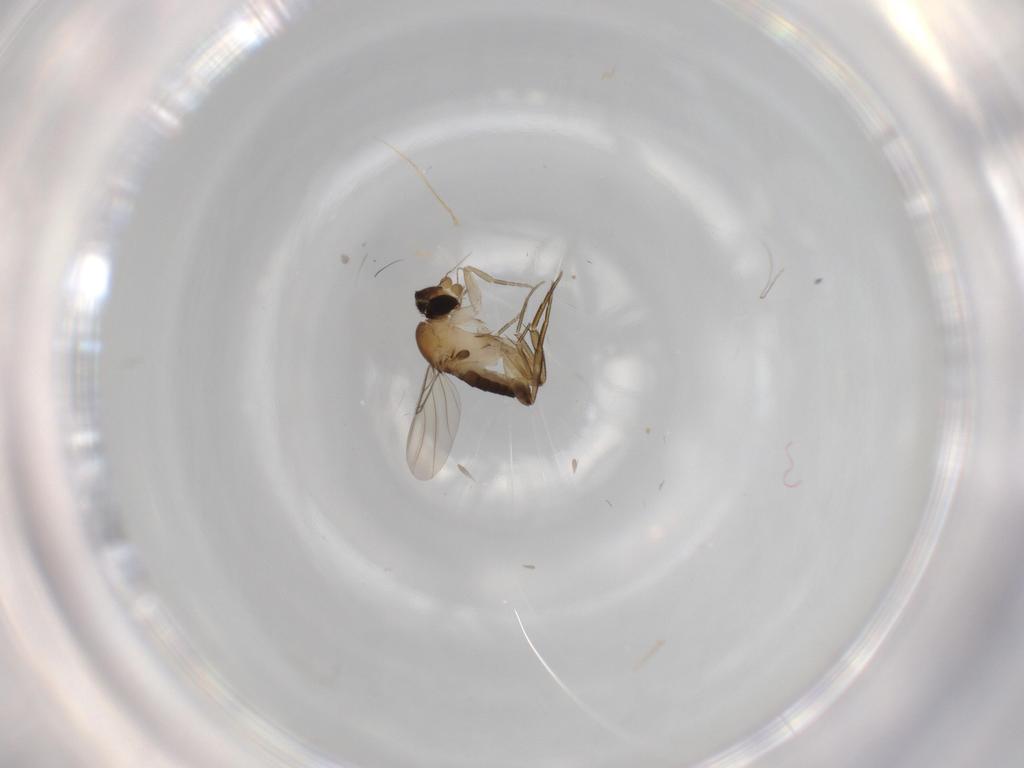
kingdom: Animalia
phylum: Arthropoda
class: Insecta
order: Diptera
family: Phoridae
